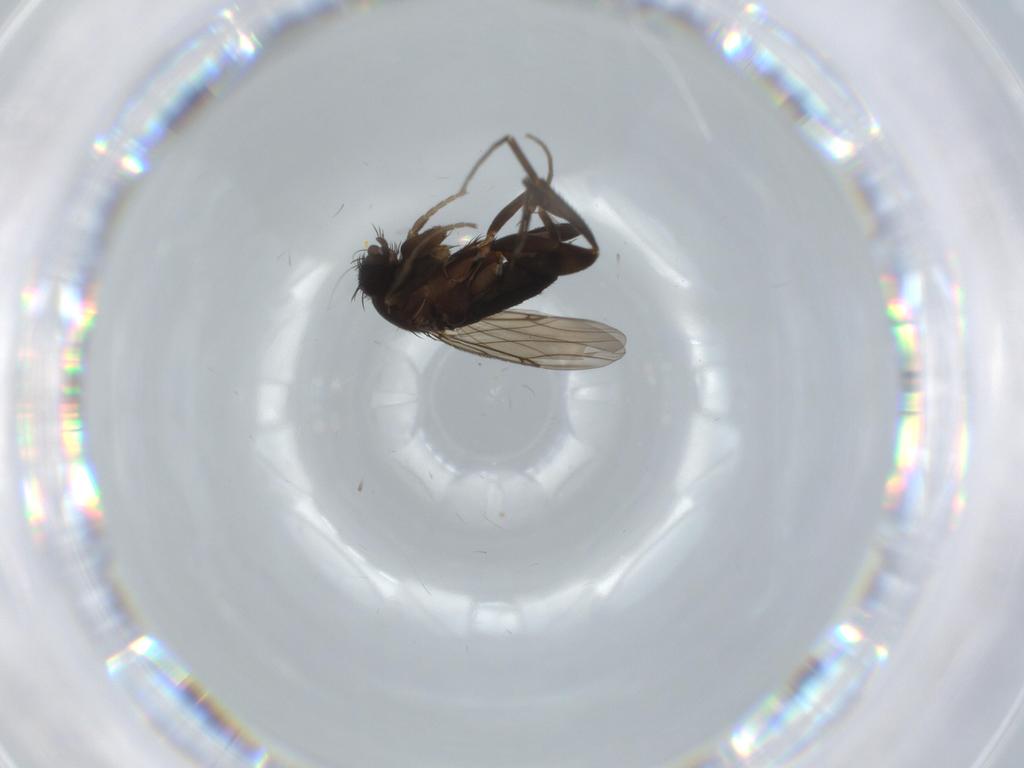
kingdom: Animalia
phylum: Arthropoda
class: Insecta
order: Diptera
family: Phoridae
